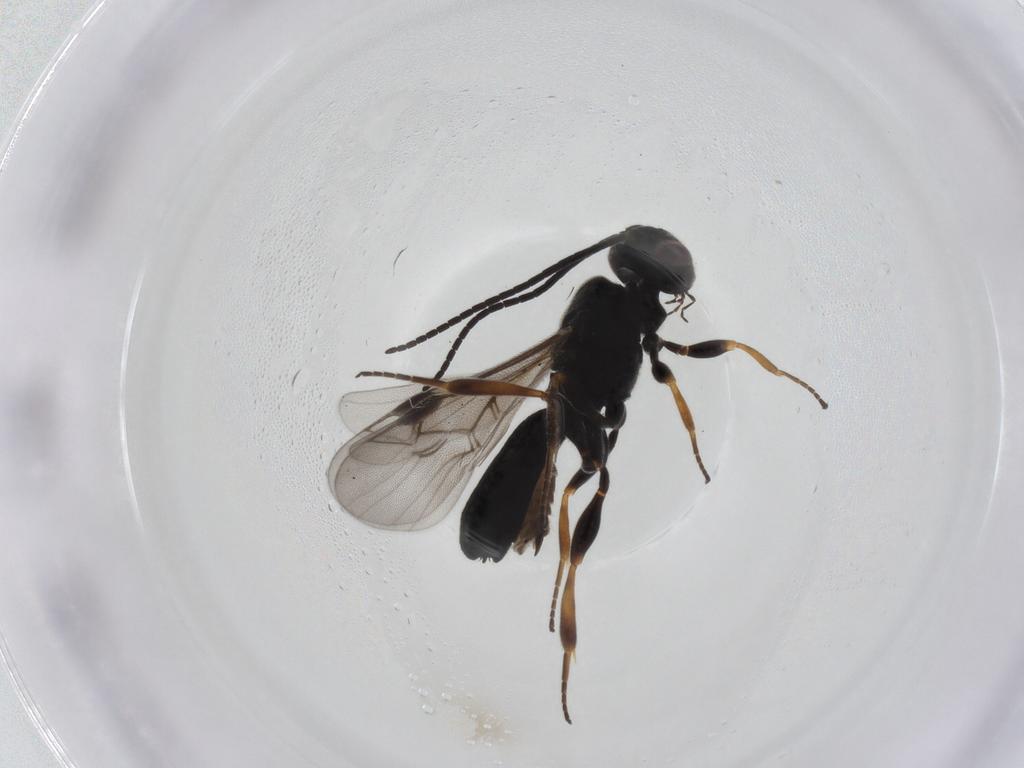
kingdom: Animalia
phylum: Arthropoda
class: Insecta
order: Hymenoptera
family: Braconidae
